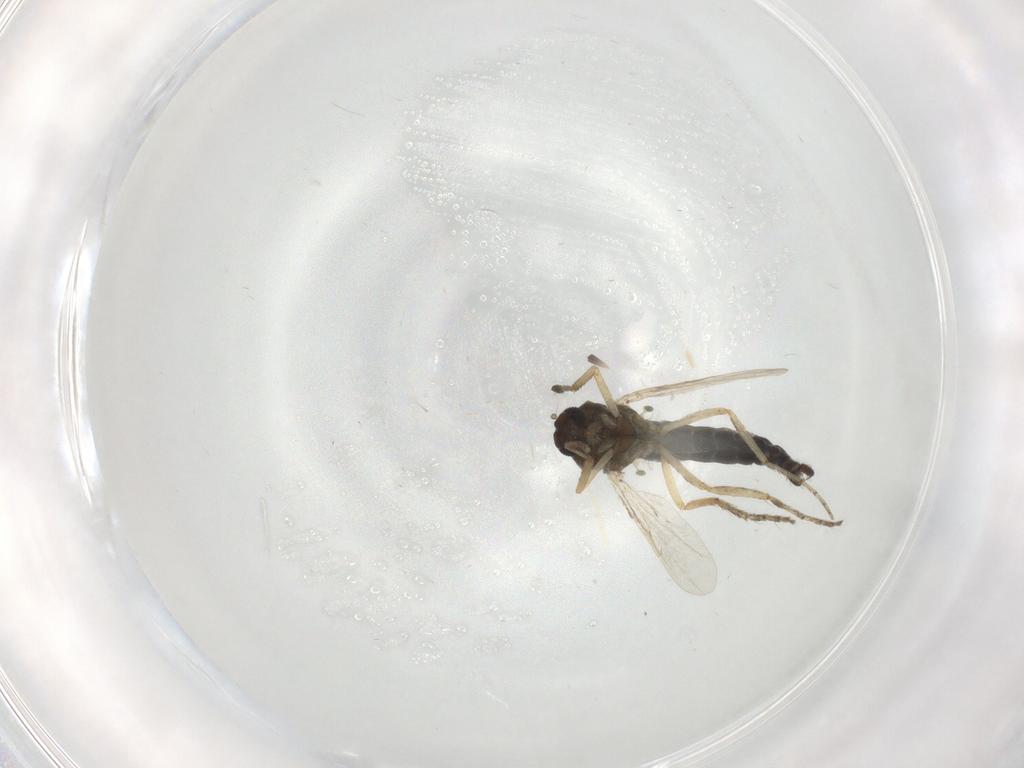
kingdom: Animalia
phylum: Arthropoda
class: Insecta
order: Diptera
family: Ceratopogonidae
